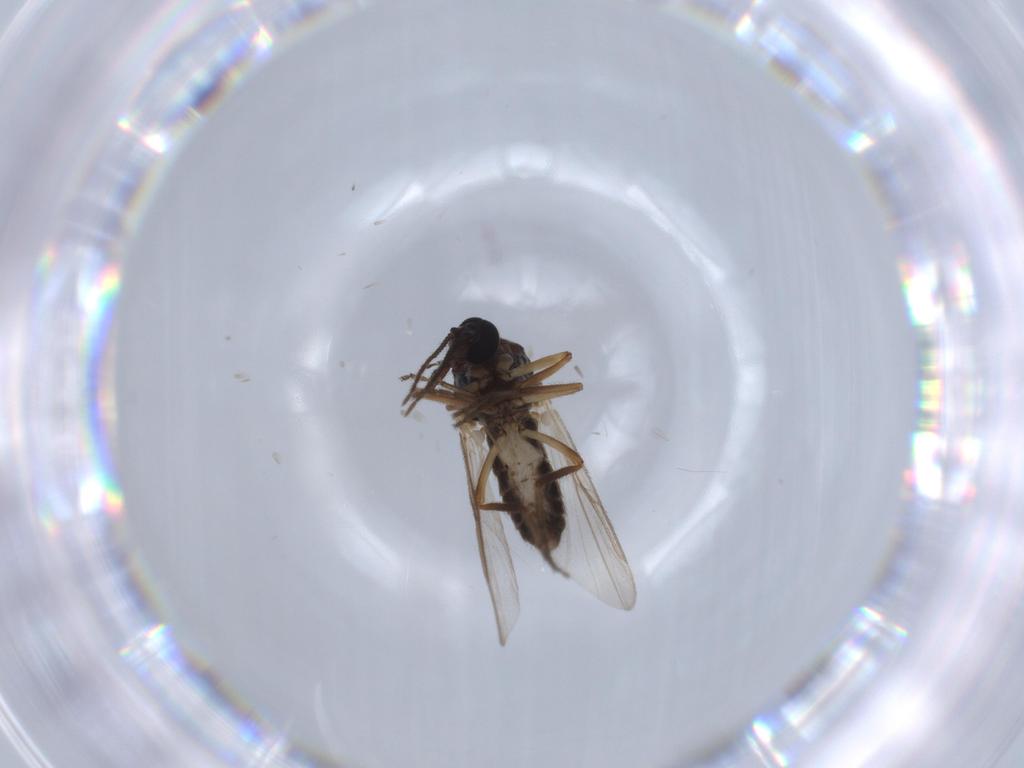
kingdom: Animalia
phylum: Arthropoda
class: Insecta
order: Diptera
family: Ceratopogonidae
